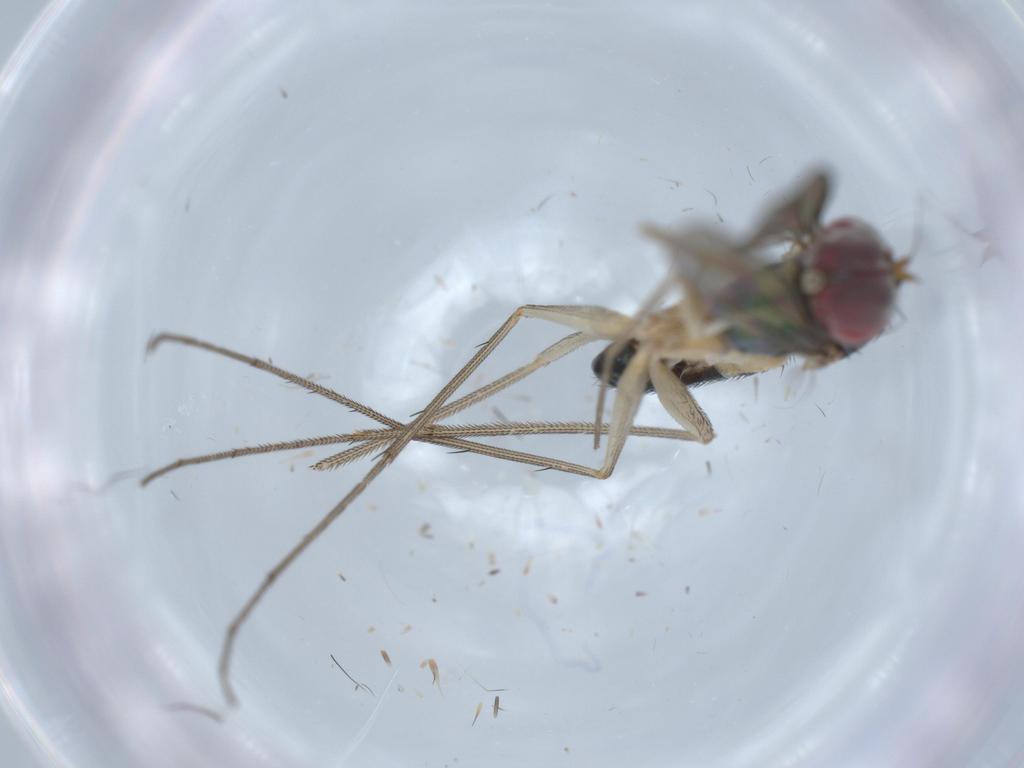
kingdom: Animalia
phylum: Arthropoda
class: Insecta
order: Diptera
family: Dolichopodidae
